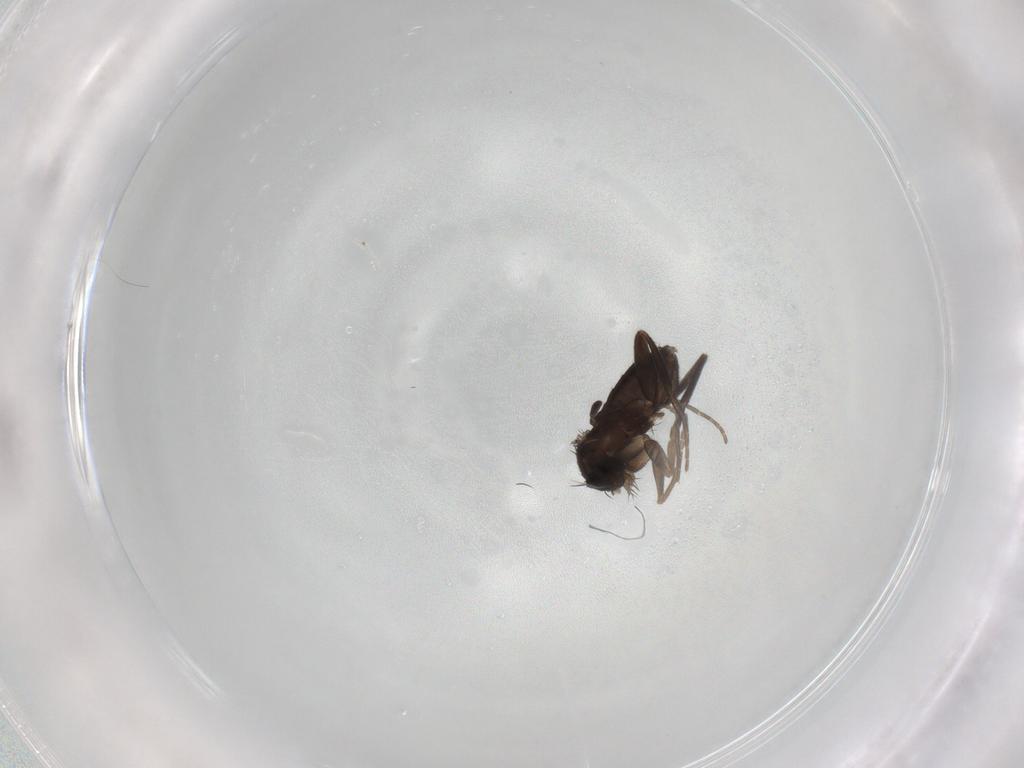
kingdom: Animalia
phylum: Arthropoda
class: Insecta
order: Diptera
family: Phoridae
